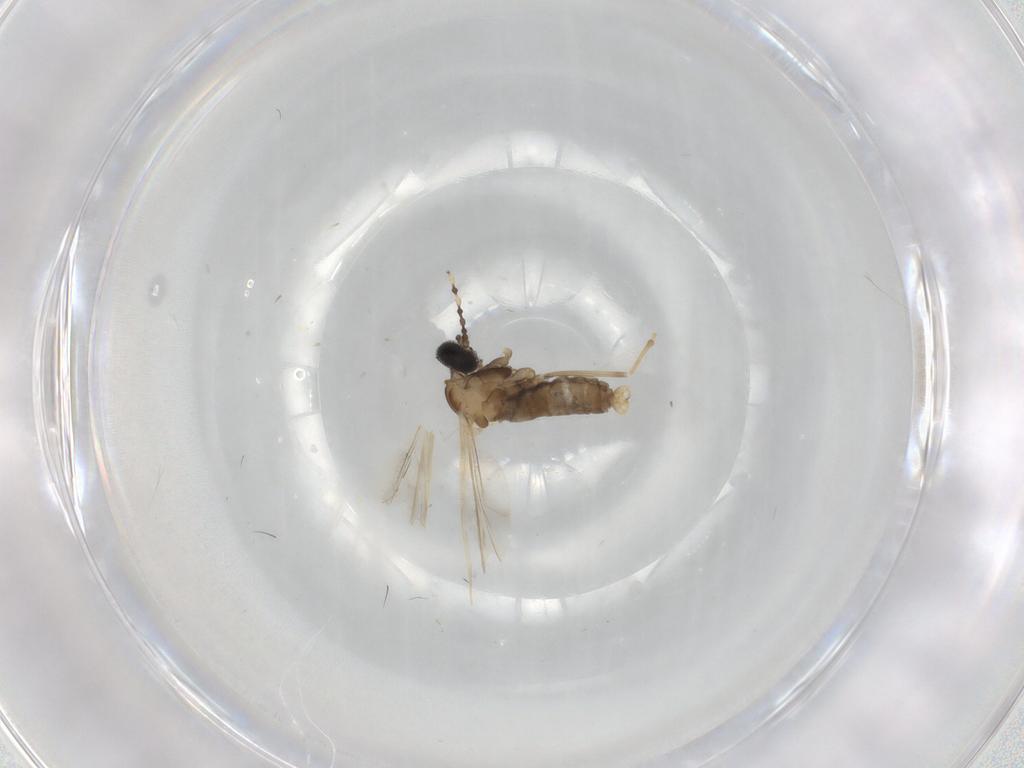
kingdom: Animalia
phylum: Arthropoda
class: Insecta
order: Diptera
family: Cecidomyiidae
